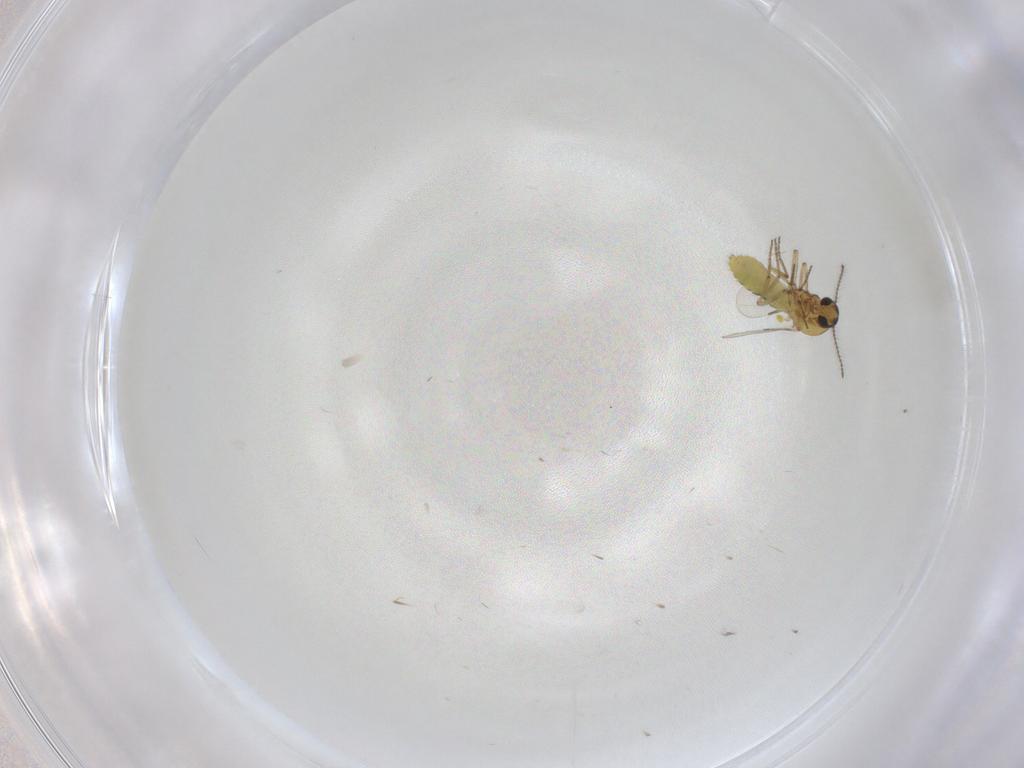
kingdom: Animalia
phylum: Arthropoda
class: Insecta
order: Diptera
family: Ceratopogonidae
